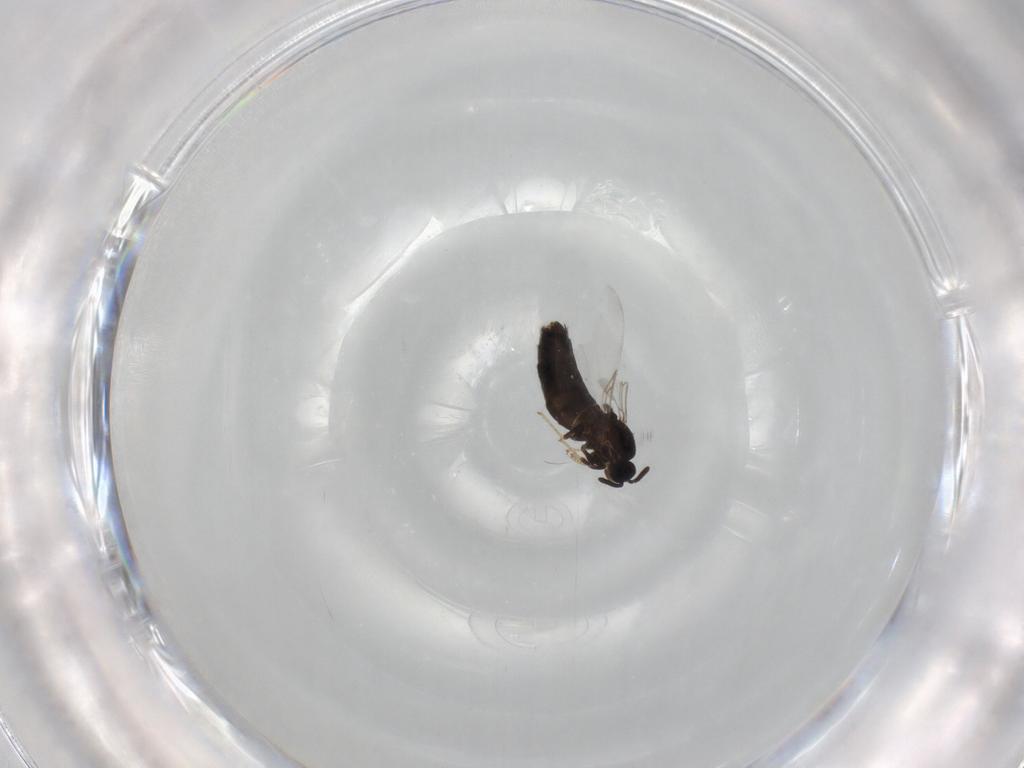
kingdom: Animalia
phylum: Arthropoda
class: Insecta
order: Diptera
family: Scatopsidae
